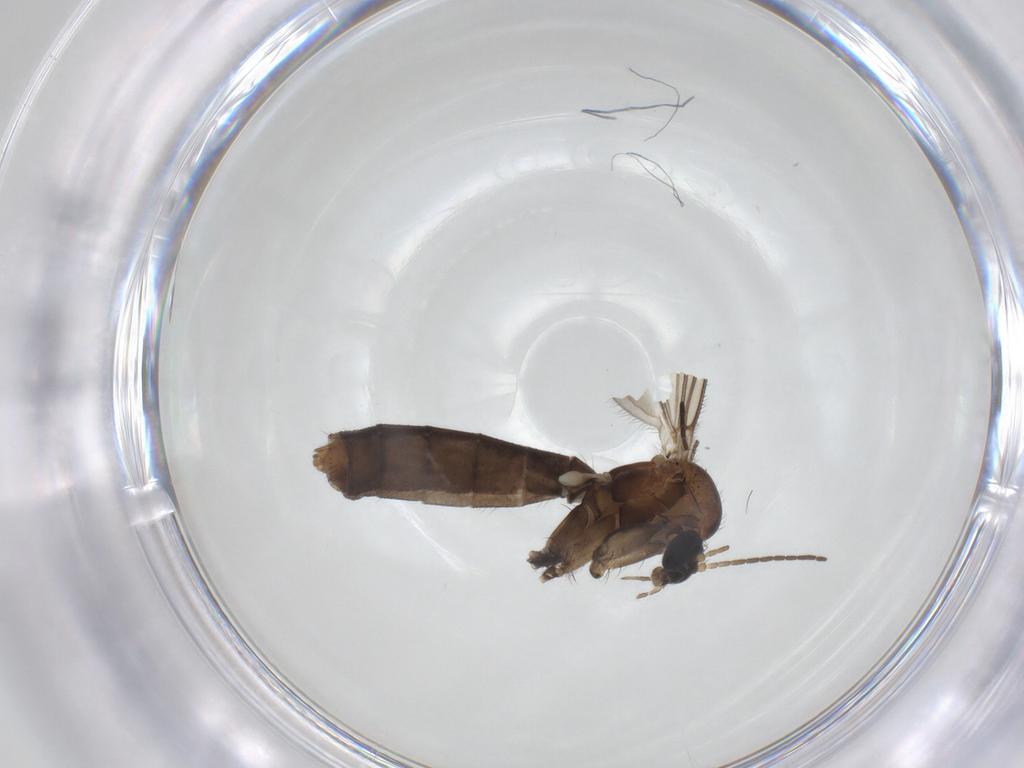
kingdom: Animalia
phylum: Arthropoda
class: Insecta
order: Diptera
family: Mycetophilidae
